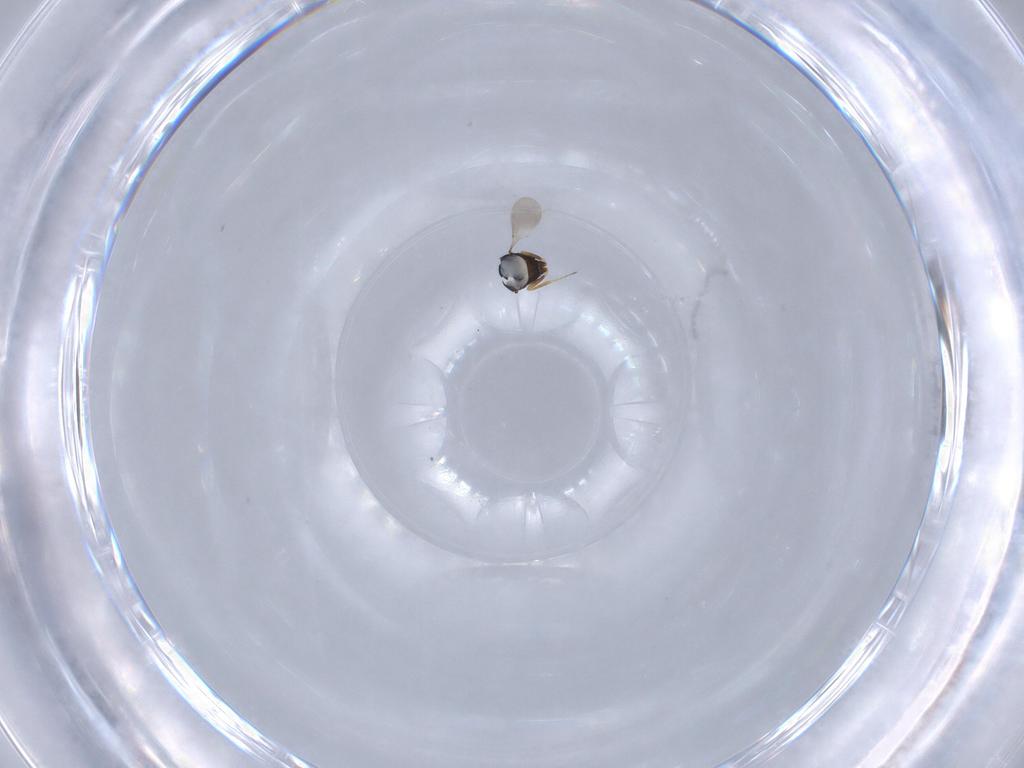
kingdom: Animalia
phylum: Arthropoda
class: Insecta
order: Hymenoptera
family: Scelionidae
